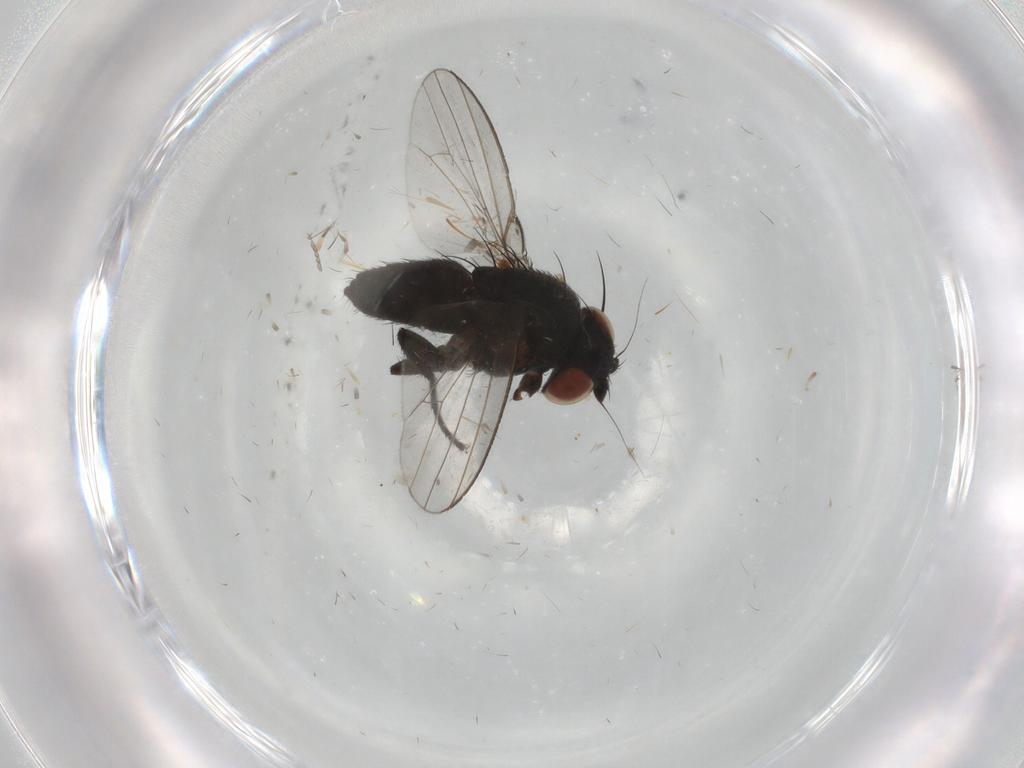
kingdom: Animalia
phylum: Arthropoda
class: Insecta
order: Diptera
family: Milichiidae
